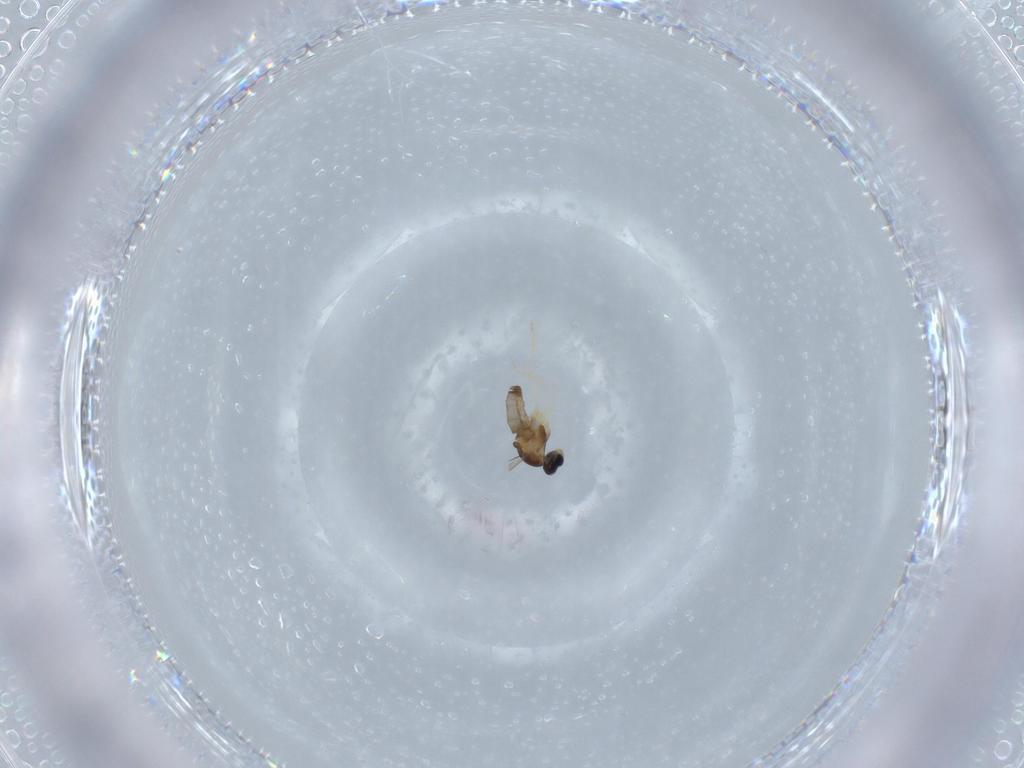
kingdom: Animalia
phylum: Arthropoda
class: Insecta
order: Diptera
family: Cecidomyiidae
